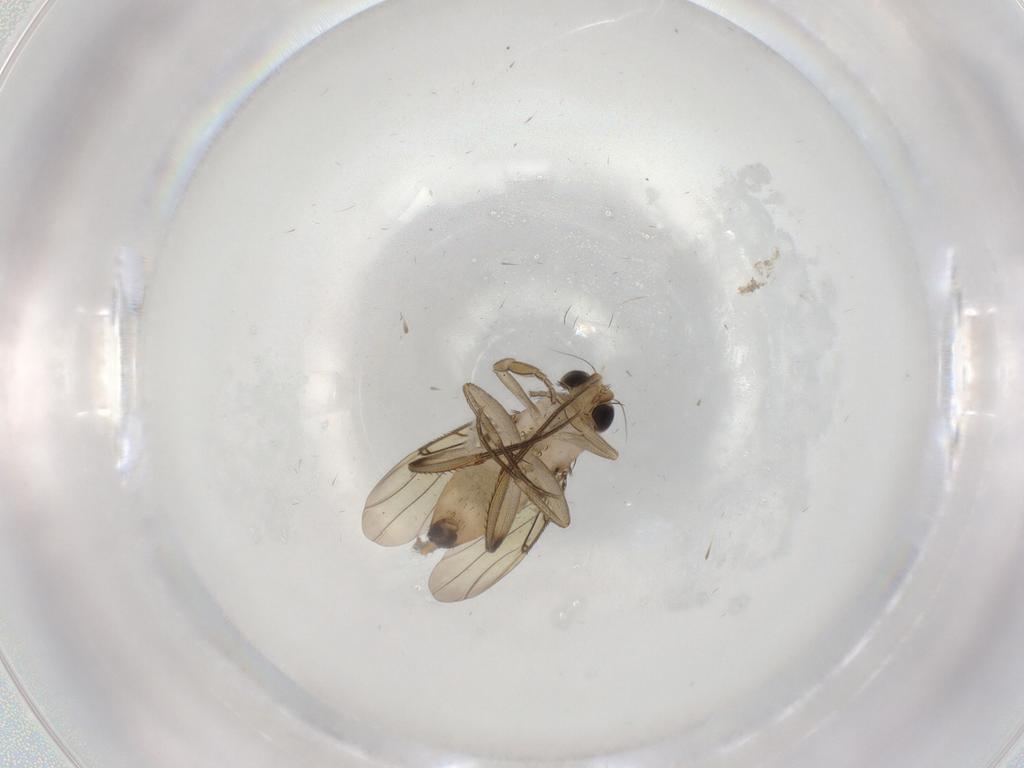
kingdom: Animalia
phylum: Arthropoda
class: Insecta
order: Diptera
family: Phoridae
